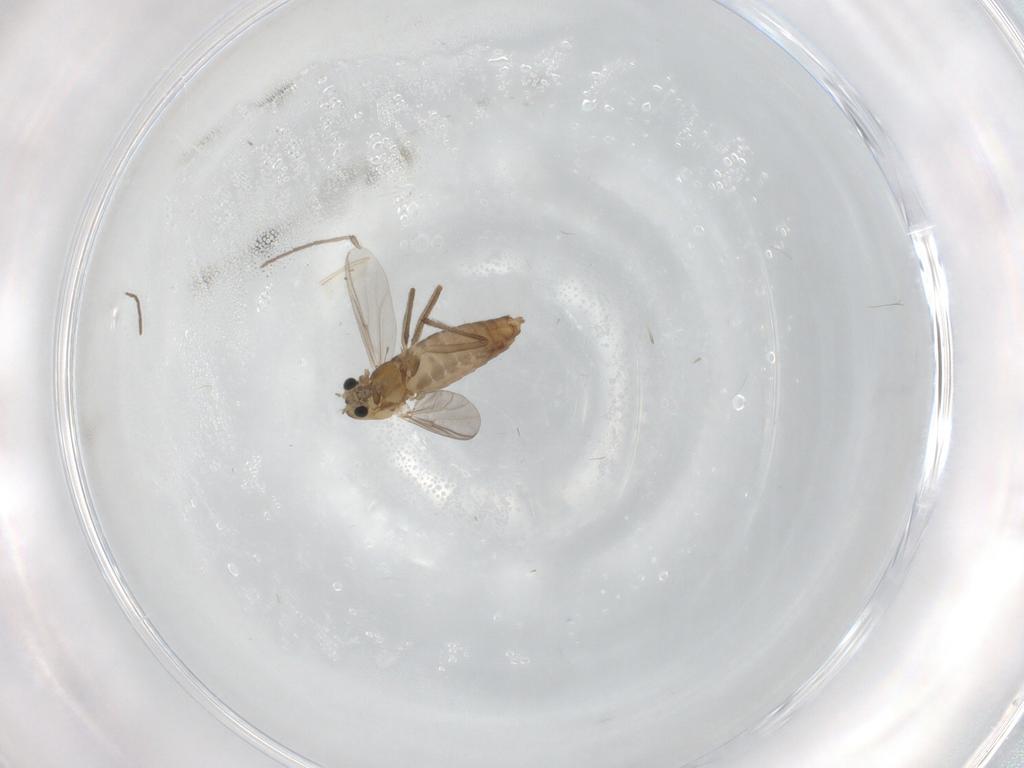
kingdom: Animalia
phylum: Arthropoda
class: Insecta
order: Diptera
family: Chironomidae
